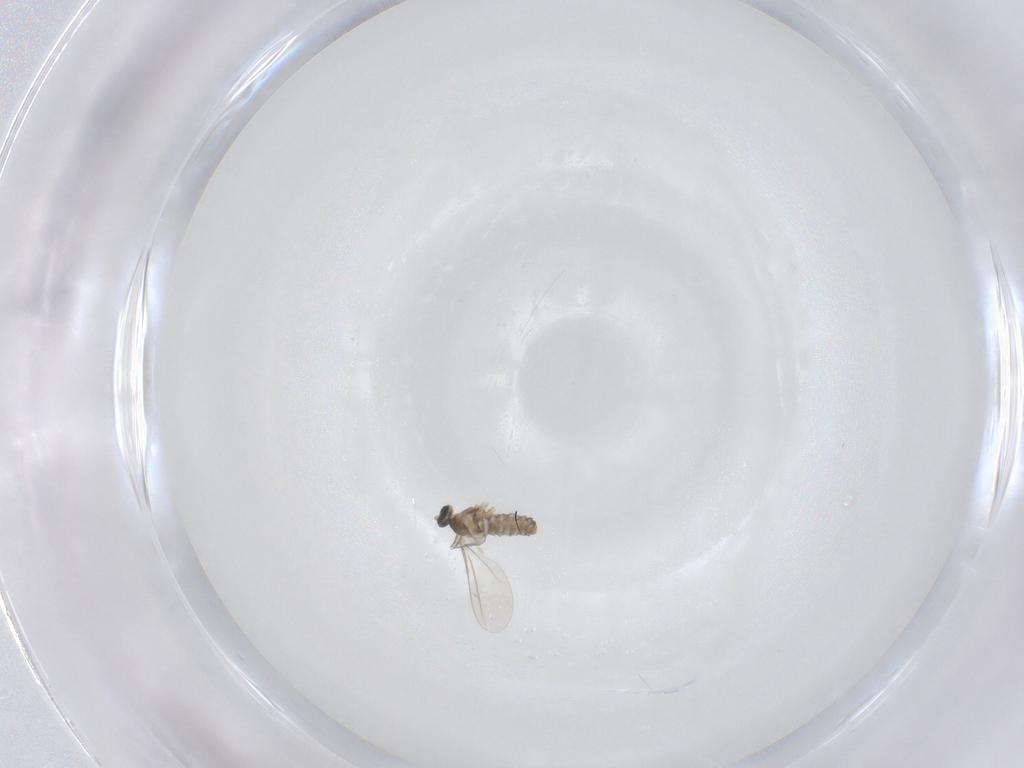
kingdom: Animalia
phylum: Arthropoda
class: Insecta
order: Diptera
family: Cecidomyiidae
